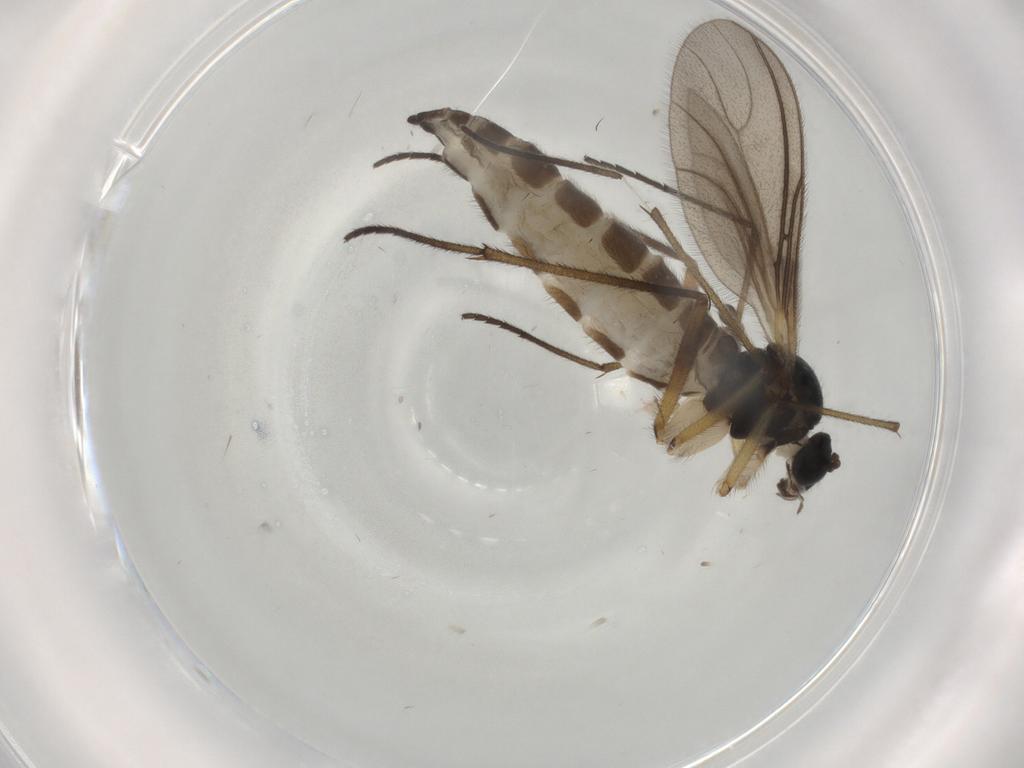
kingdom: Animalia
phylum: Arthropoda
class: Insecta
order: Diptera
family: Sciaridae
